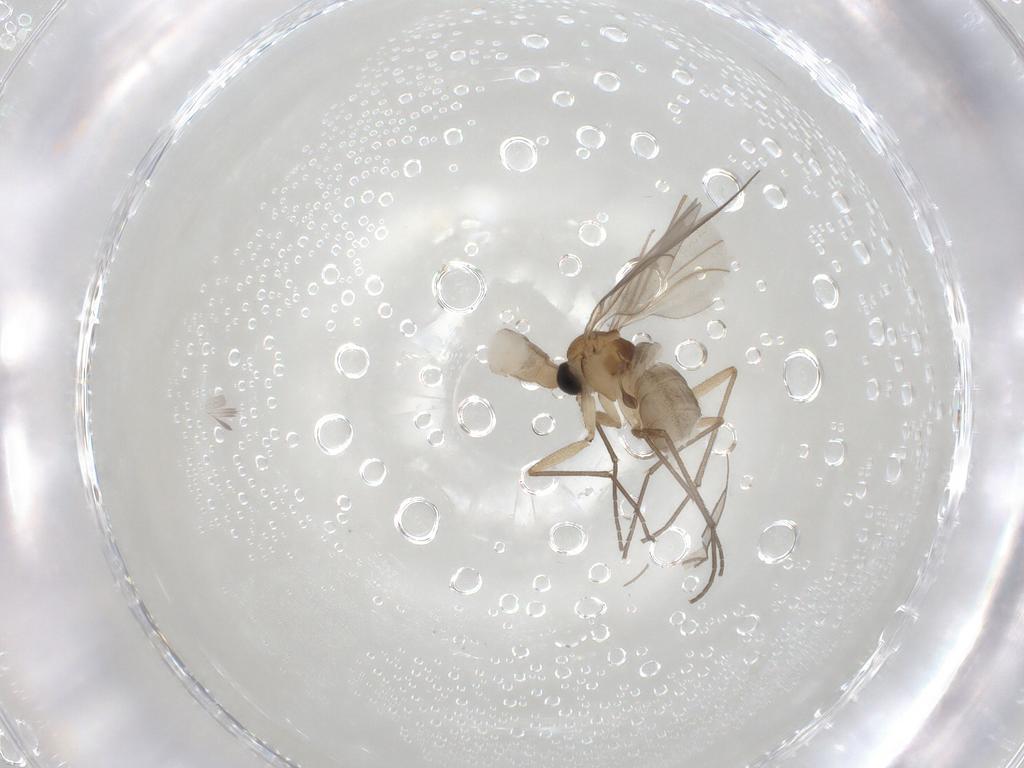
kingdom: Animalia
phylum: Arthropoda
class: Insecta
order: Diptera
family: Sciaridae
